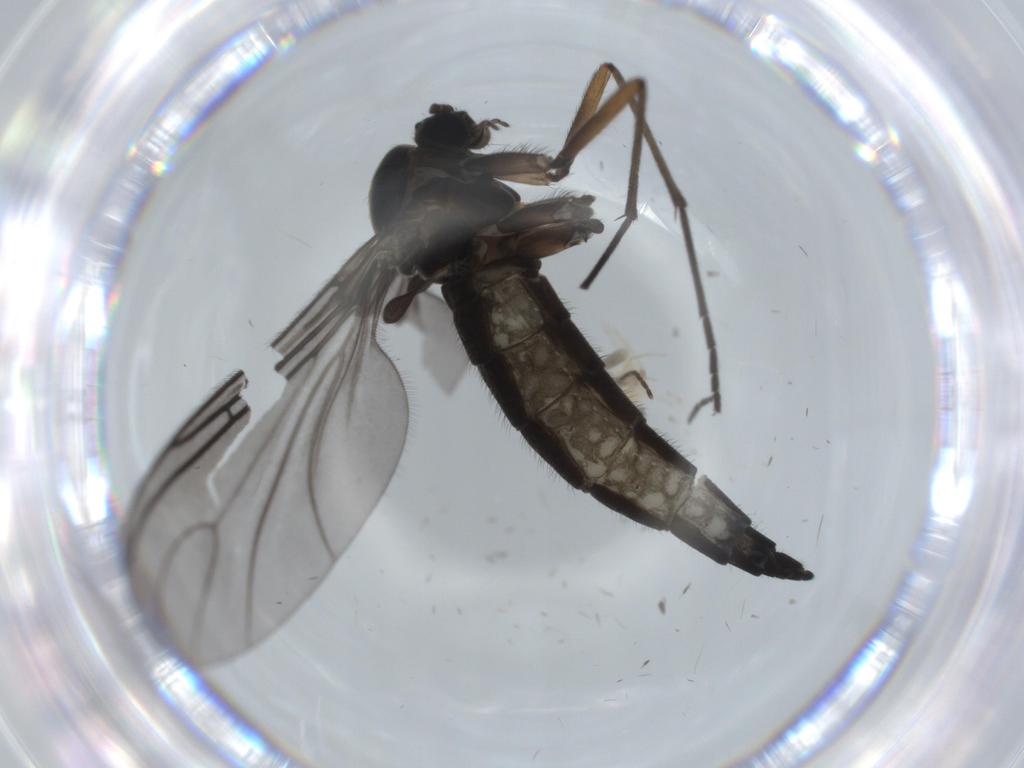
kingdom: Animalia
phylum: Arthropoda
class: Insecta
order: Diptera
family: Sciaridae
